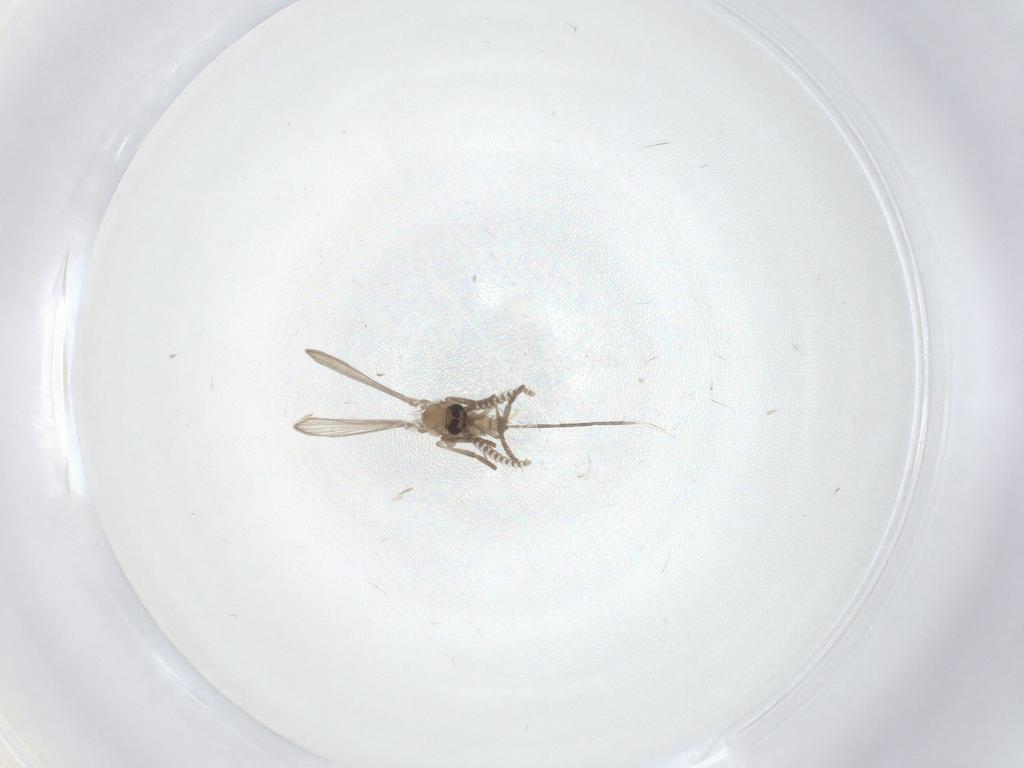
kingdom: Animalia
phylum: Arthropoda
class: Insecta
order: Diptera
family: Psychodidae
